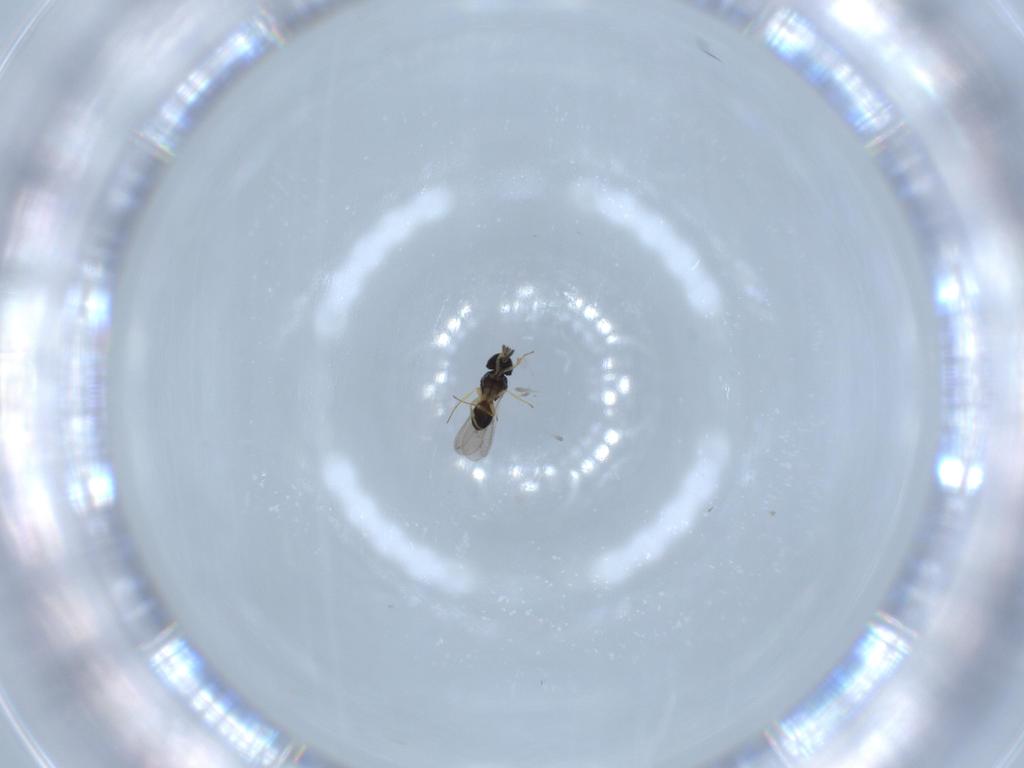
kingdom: Animalia
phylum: Arthropoda
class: Insecta
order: Hymenoptera
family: Scelionidae
